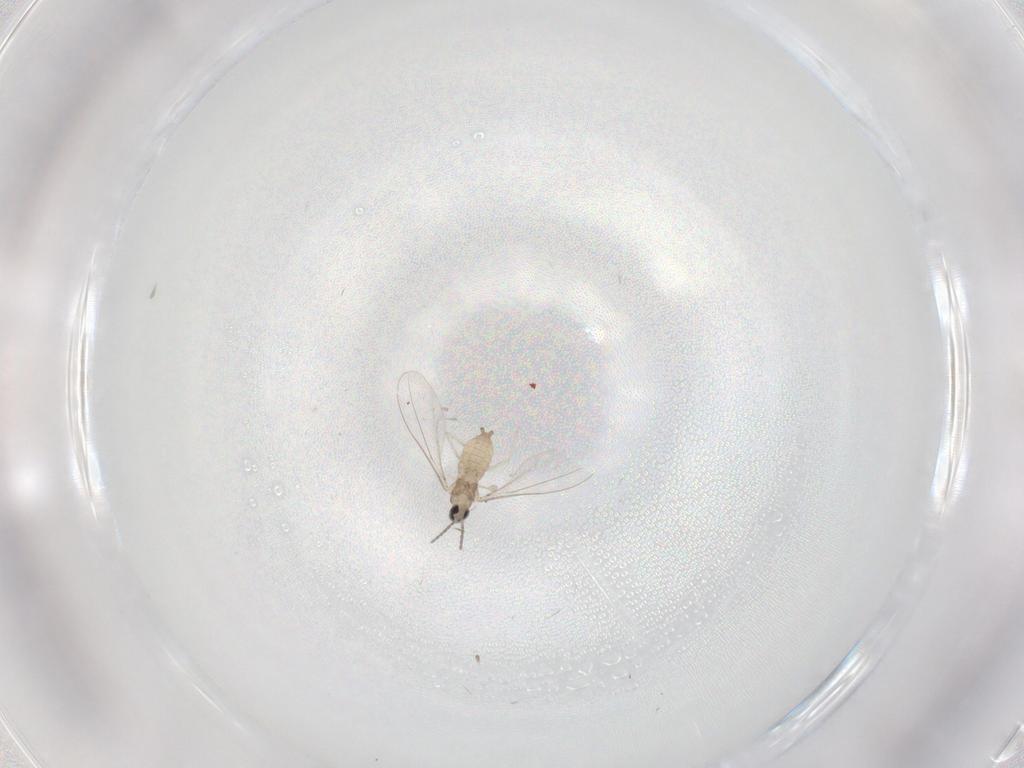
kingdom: Animalia
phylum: Arthropoda
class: Insecta
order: Diptera
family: Cecidomyiidae
